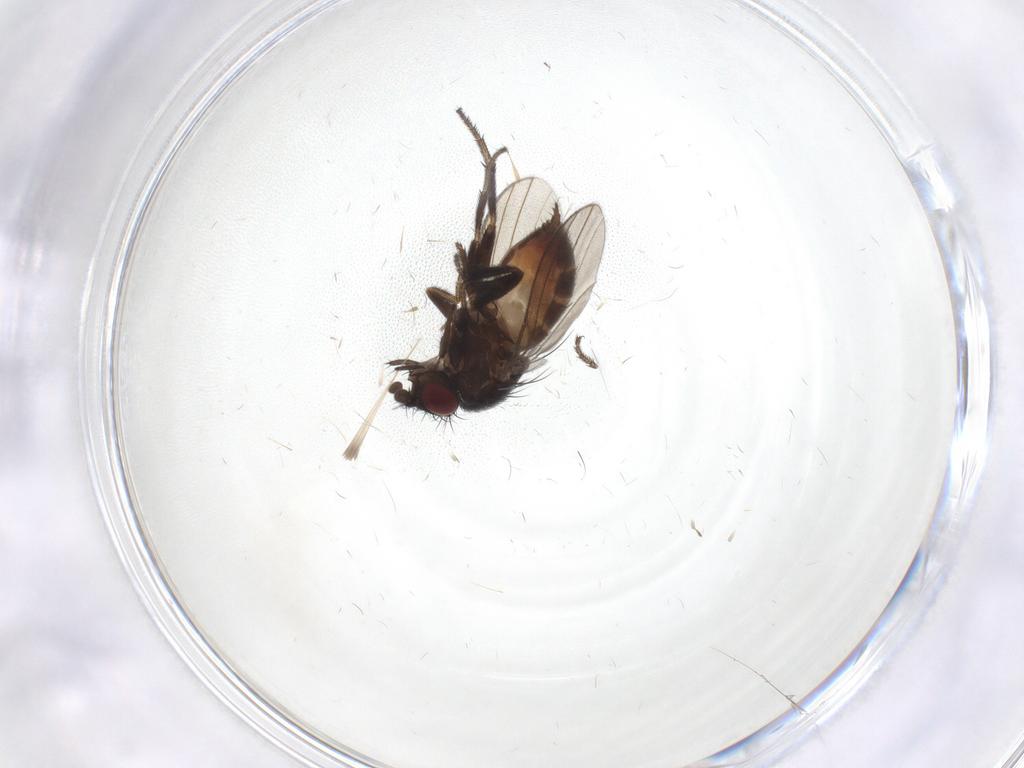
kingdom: Animalia
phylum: Arthropoda
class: Insecta
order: Diptera
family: Milichiidae
